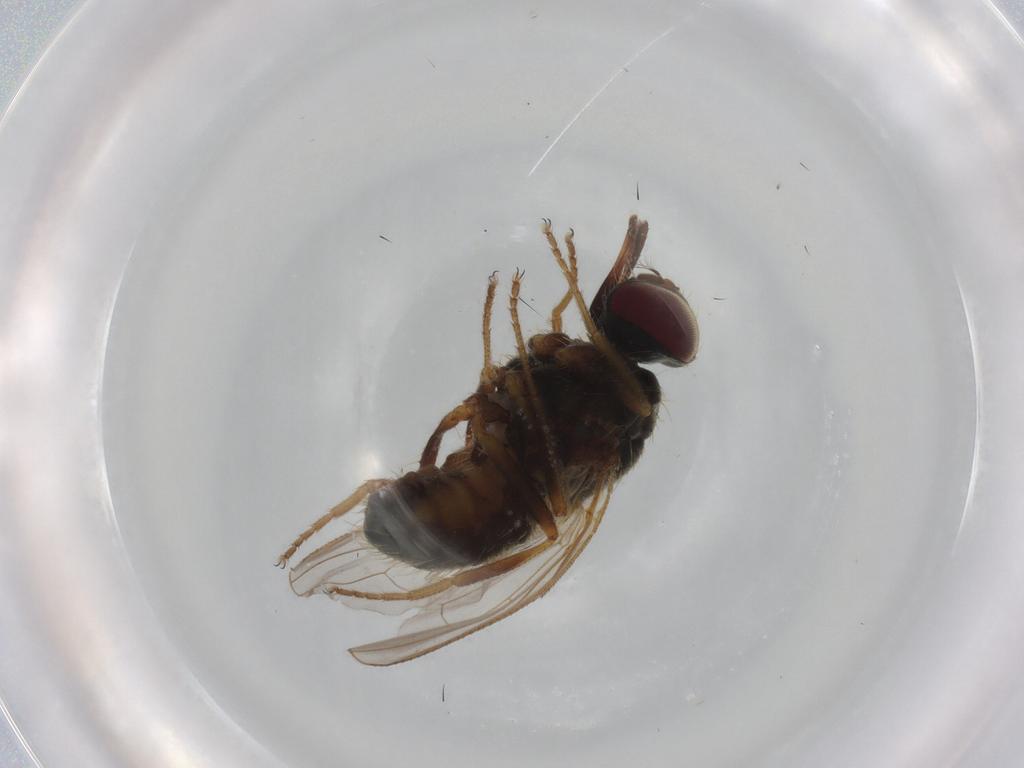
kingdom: Animalia
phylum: Arthropoda
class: Insecta
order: Diptera
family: Muscidae
